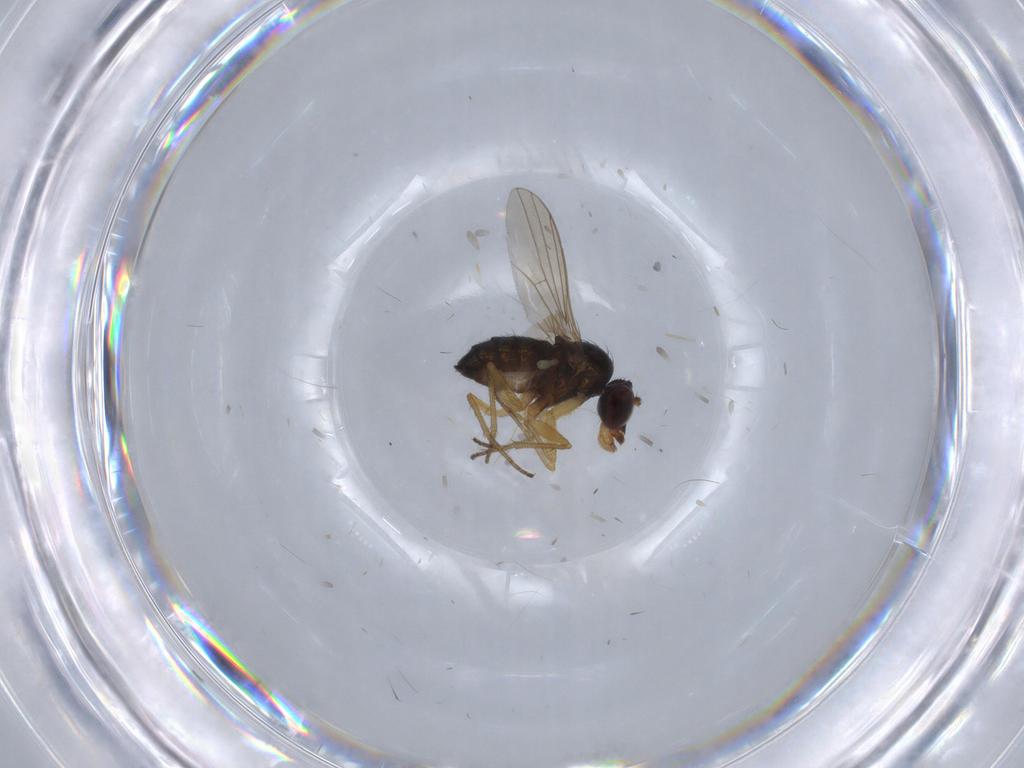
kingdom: Animalia
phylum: Arthropoda
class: Insecta
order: Diptera
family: Dolichopodidae
